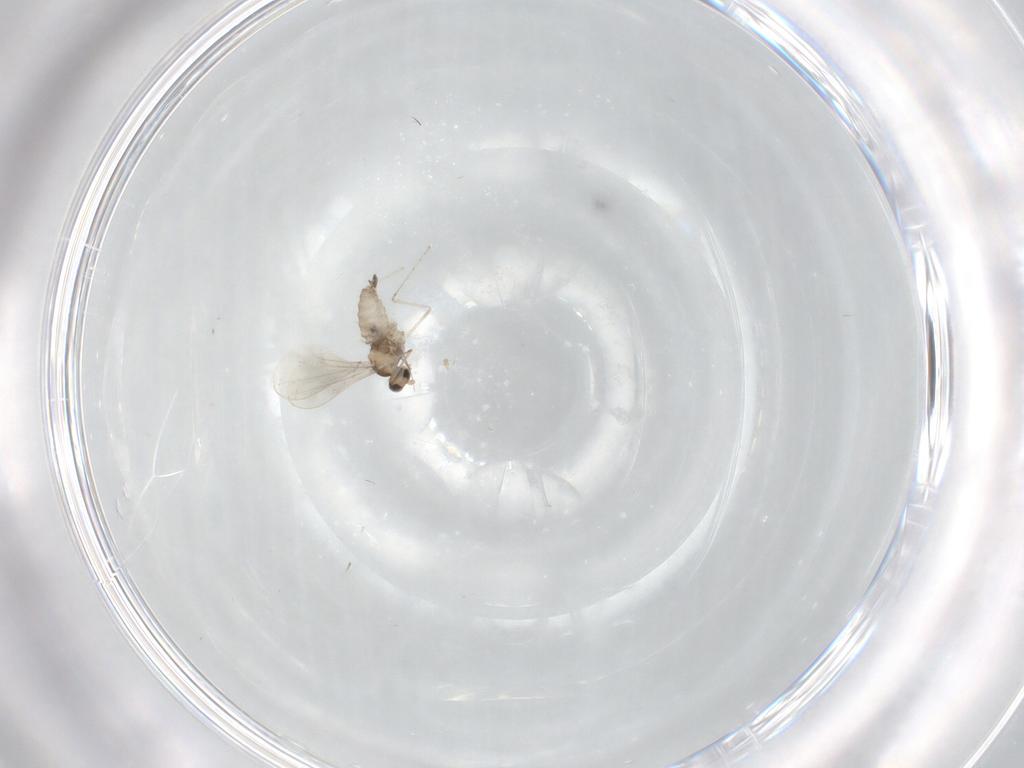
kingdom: Animalia
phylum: Arthropoda
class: Insecta
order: Diptera
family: Cecidomyiidae
